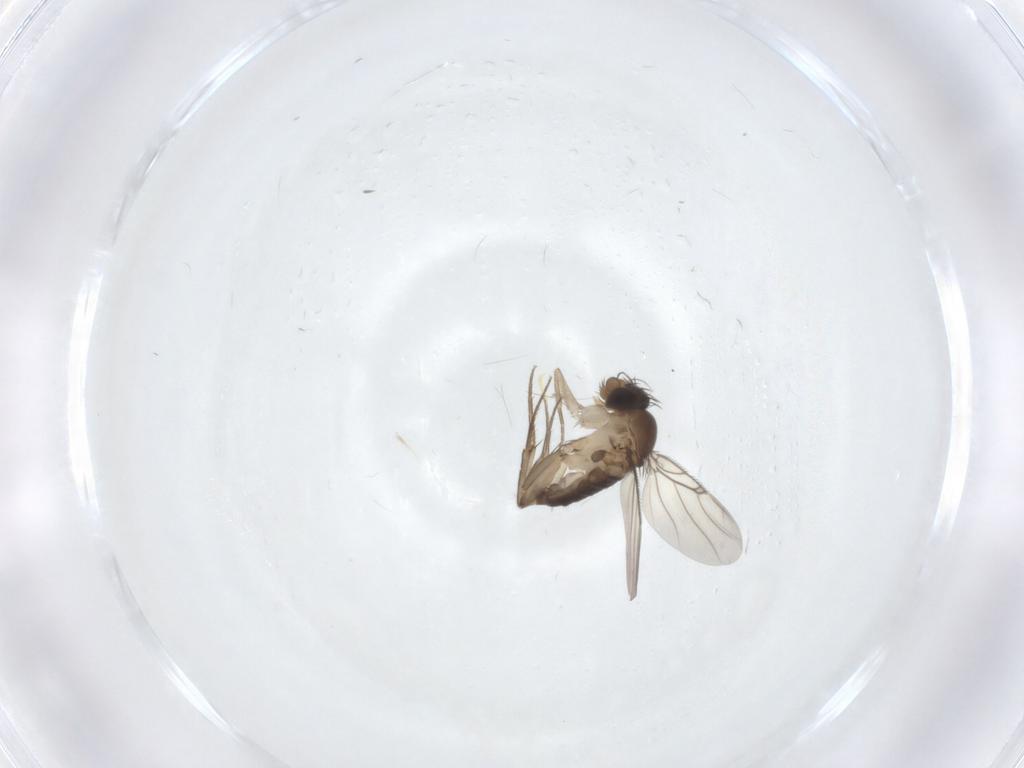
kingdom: Animalia
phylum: Arthropoda
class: Insecta
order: Diptera
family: Phoridae
